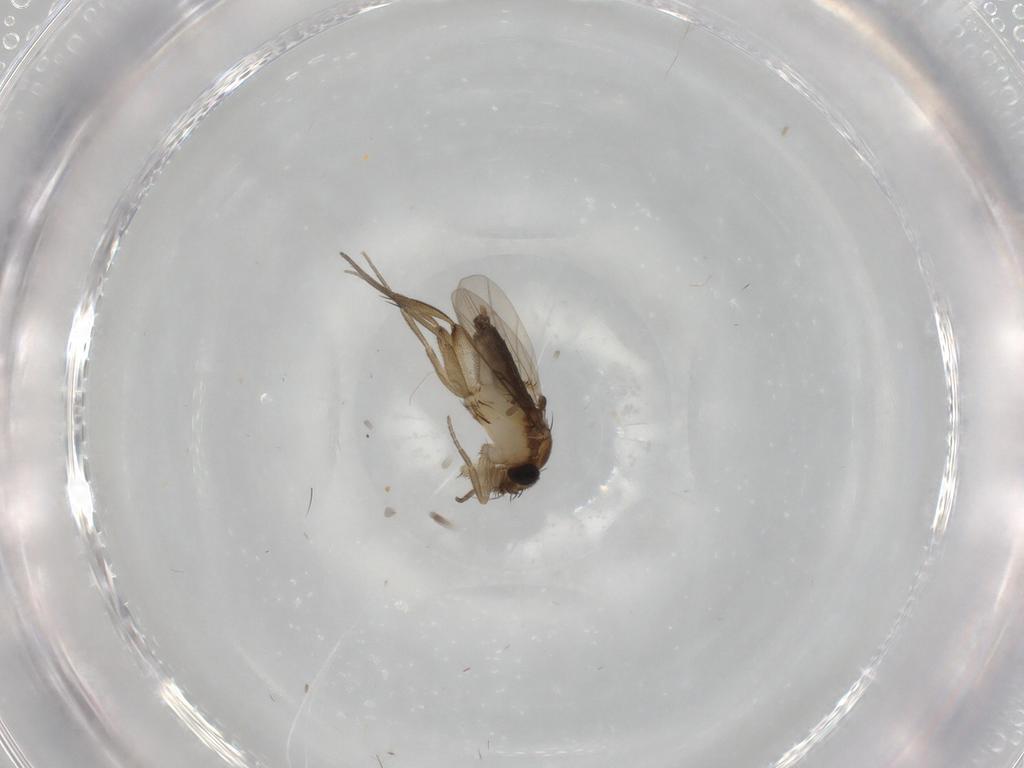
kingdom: Animalia
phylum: Arthropoda
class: Insecta
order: Diptera
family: Phoridae
